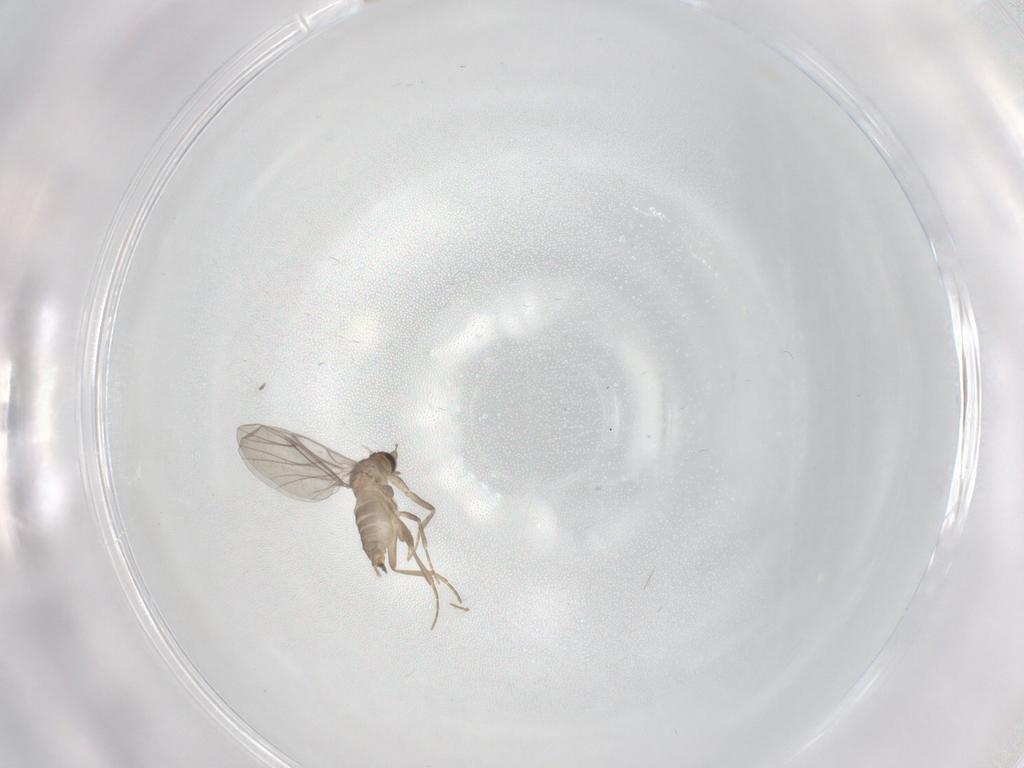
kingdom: Animalia
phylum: Arthropoda
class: Insecta
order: Diptera
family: Chironomidae
